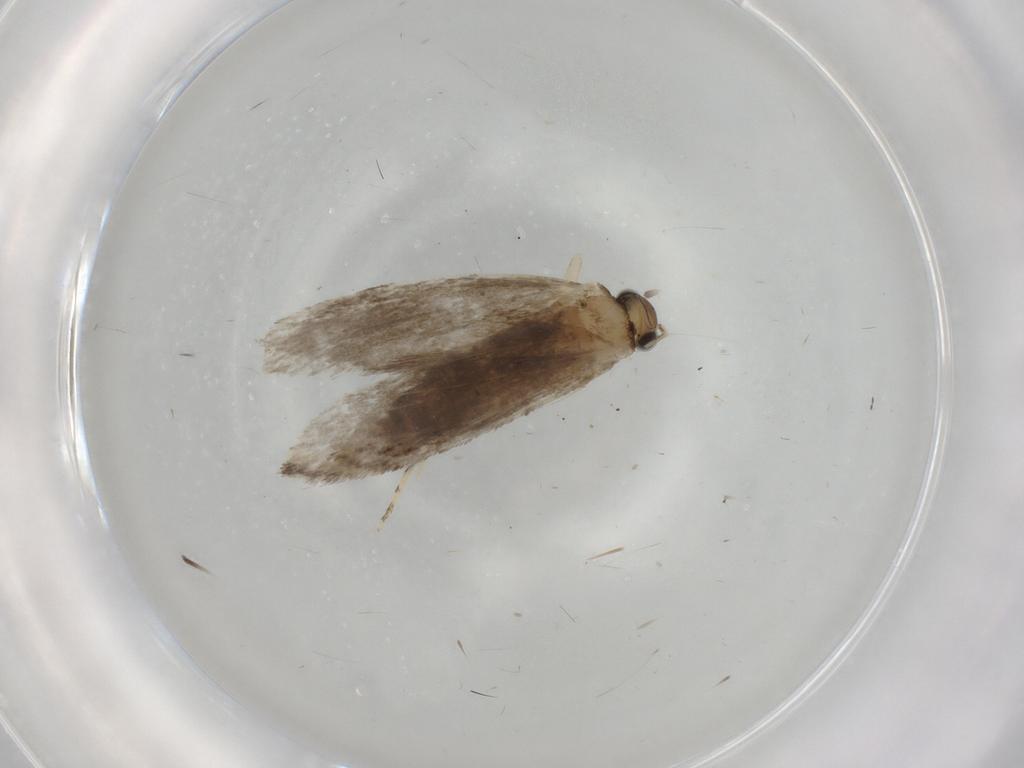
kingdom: Animalia
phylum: Arthropoda
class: Insecta
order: Lepidoptera
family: Tineidae
